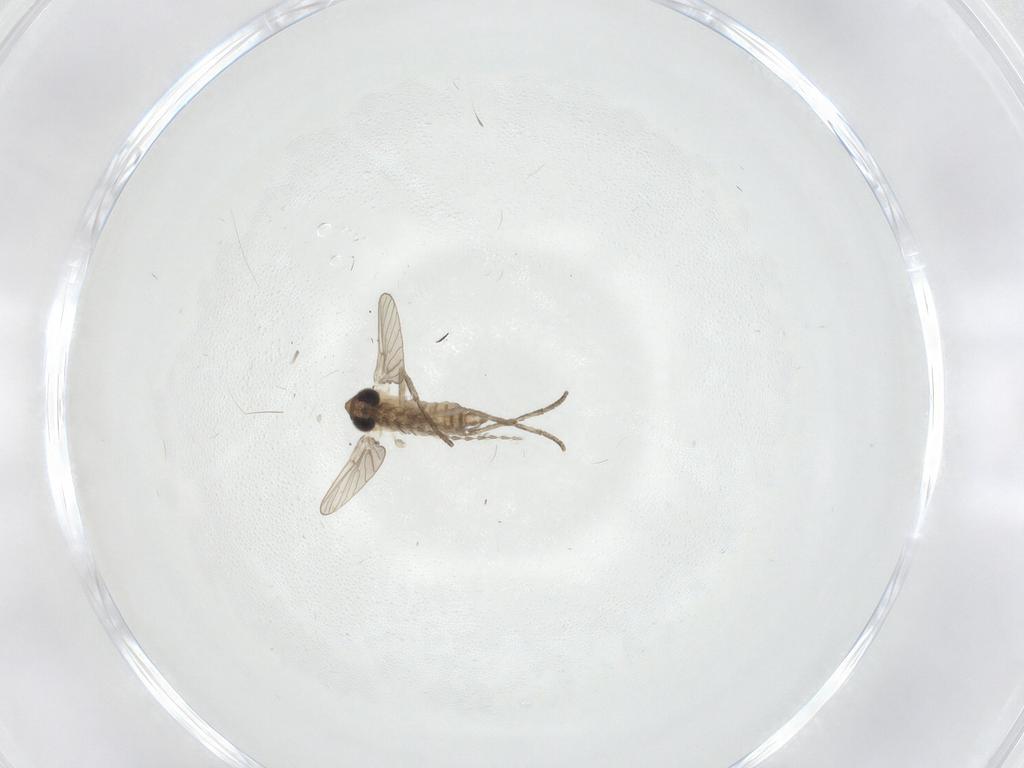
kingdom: Animalia
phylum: Arthropoda
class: Insecta
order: Diptera
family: Psychodidae
